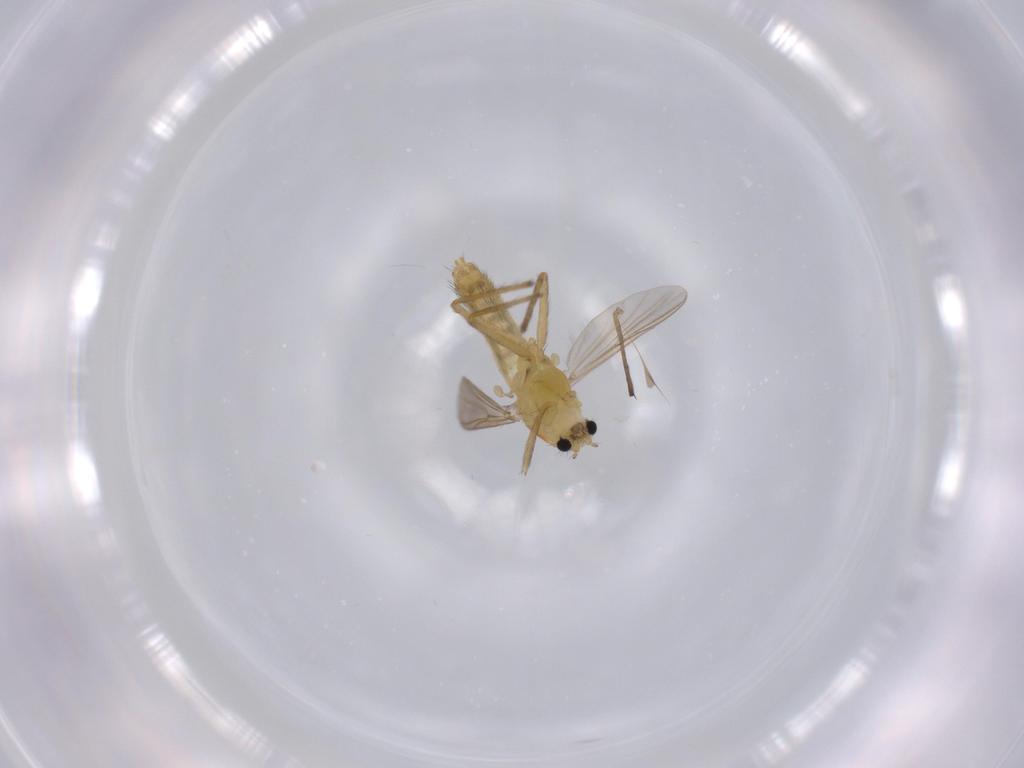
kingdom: Animalia
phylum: Arthropoda
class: Insecta
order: Diptera
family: Chironomidae
